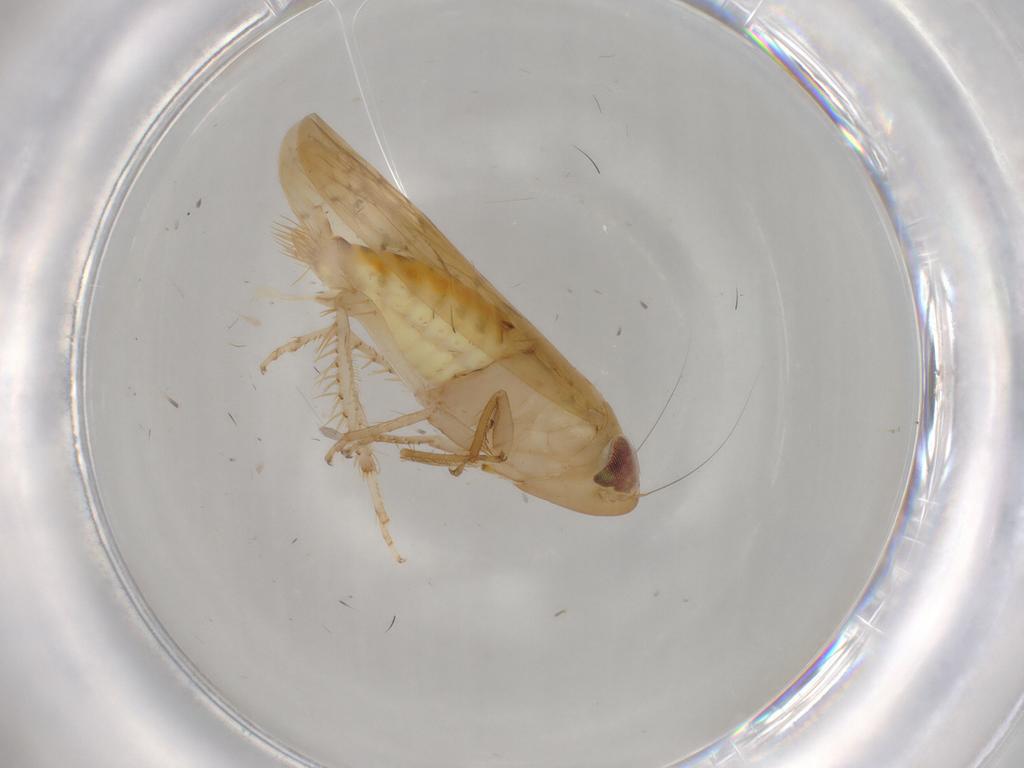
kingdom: Animalia
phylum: Arthropoda
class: Insecta
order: Hemiptera
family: Cicadellidae
